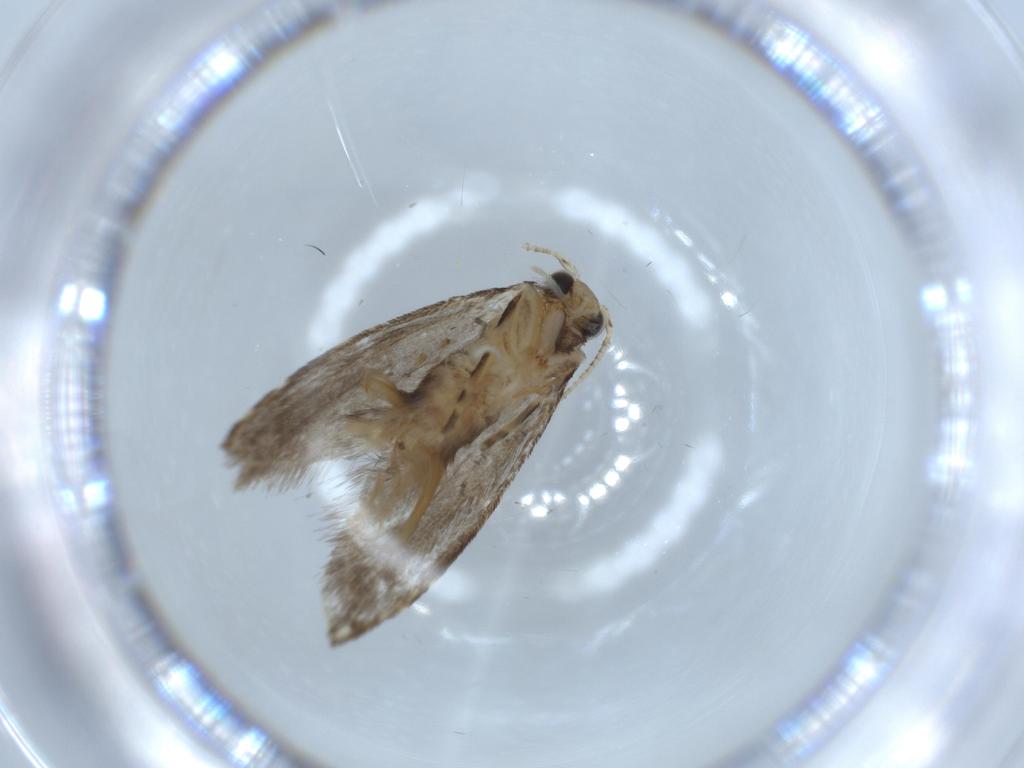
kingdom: Animalia
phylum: Arthropoda
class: Insecta
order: Lepidoptera
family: Tineidae
